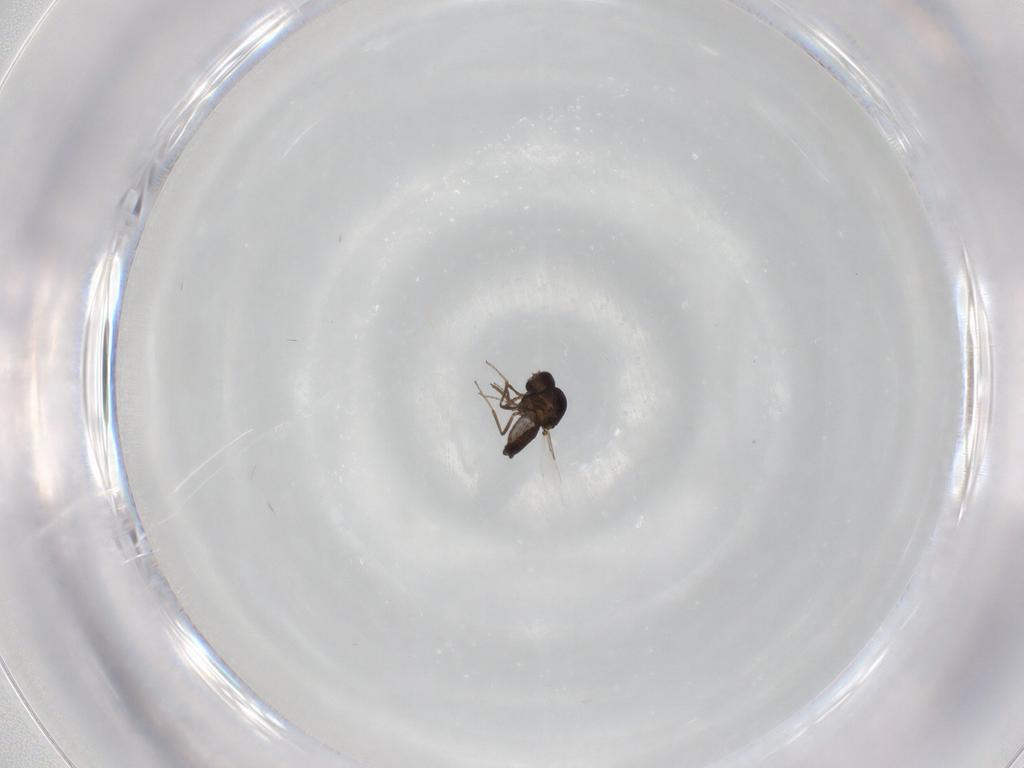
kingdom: Animalia
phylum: Arthropoda
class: Insecta
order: Diptera
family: Ceratopogonidae
